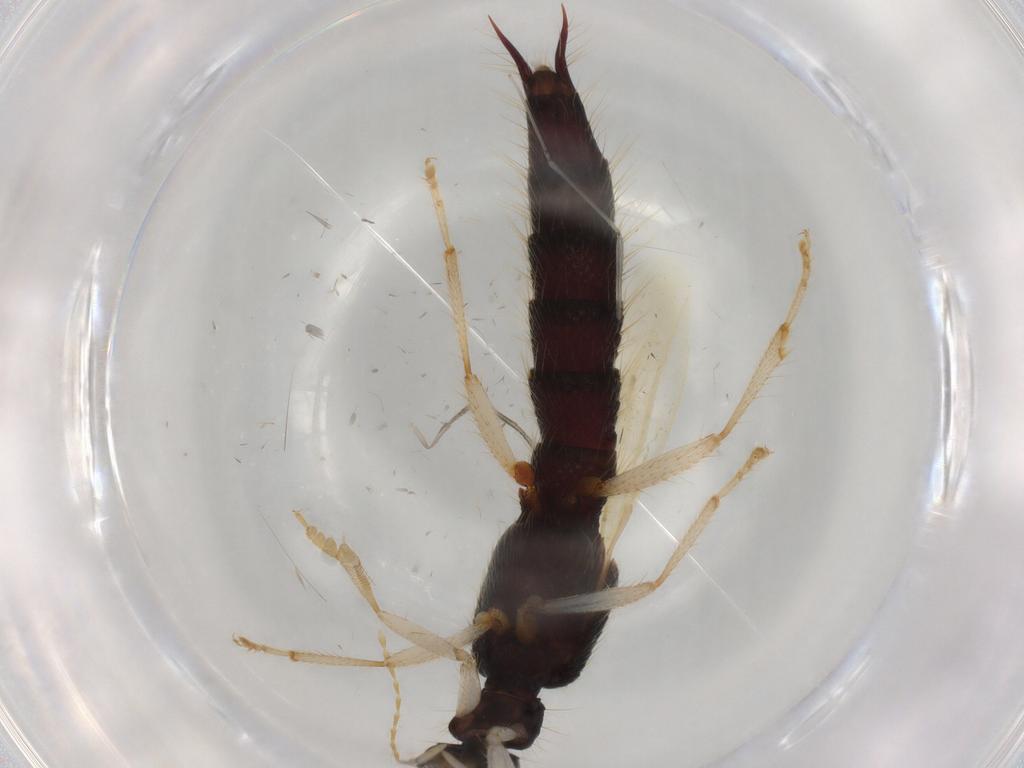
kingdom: Animalia
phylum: Arthropoda
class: Insecta
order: Coleoptera
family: Staphylinidae
